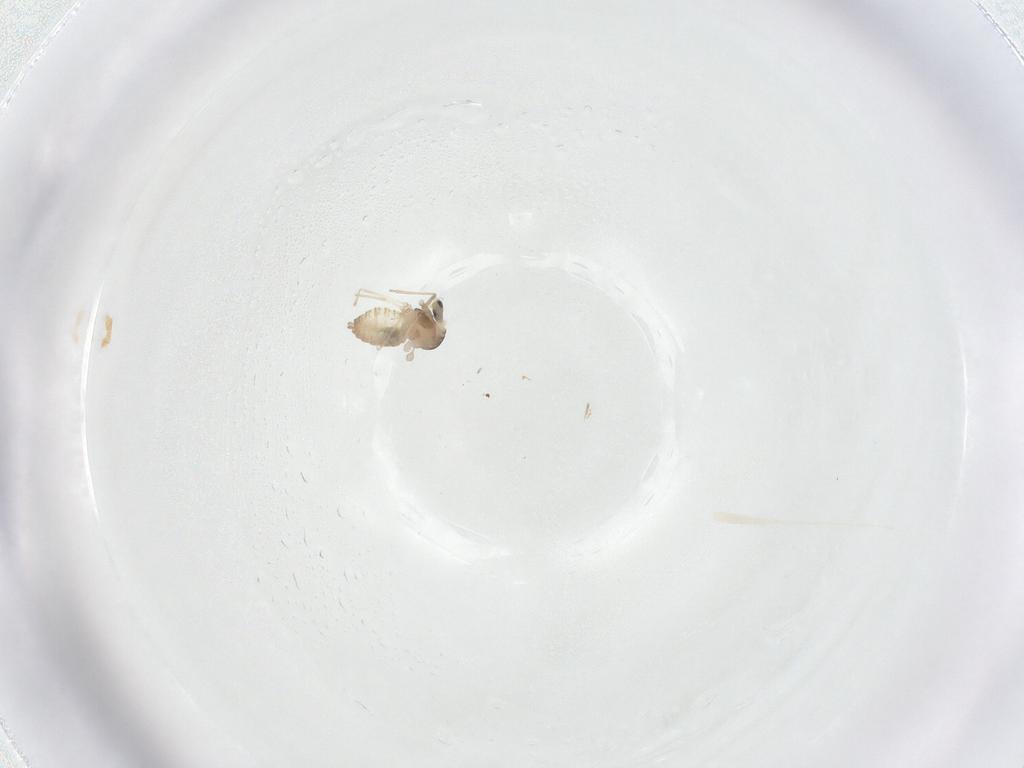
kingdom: Animalia
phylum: Arthropoda
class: Insecta
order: Diptera
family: Cecidomyiidae
